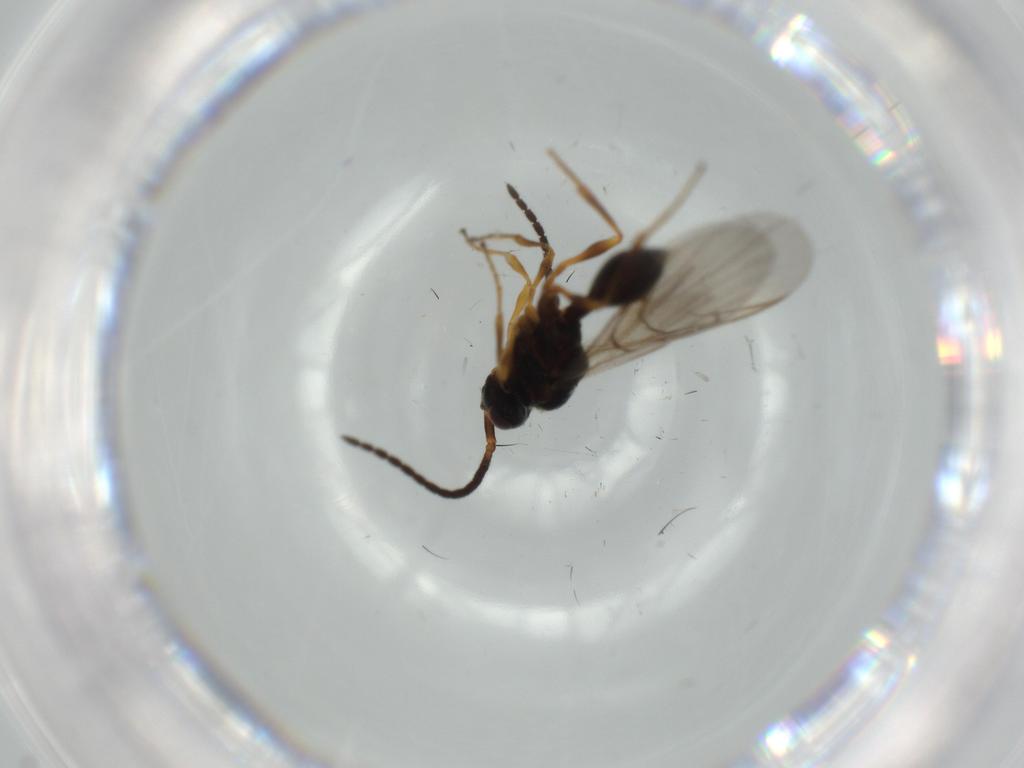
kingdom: Animalia
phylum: Arthropoda
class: Insecta
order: Hymenoptera
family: Diapriidae
